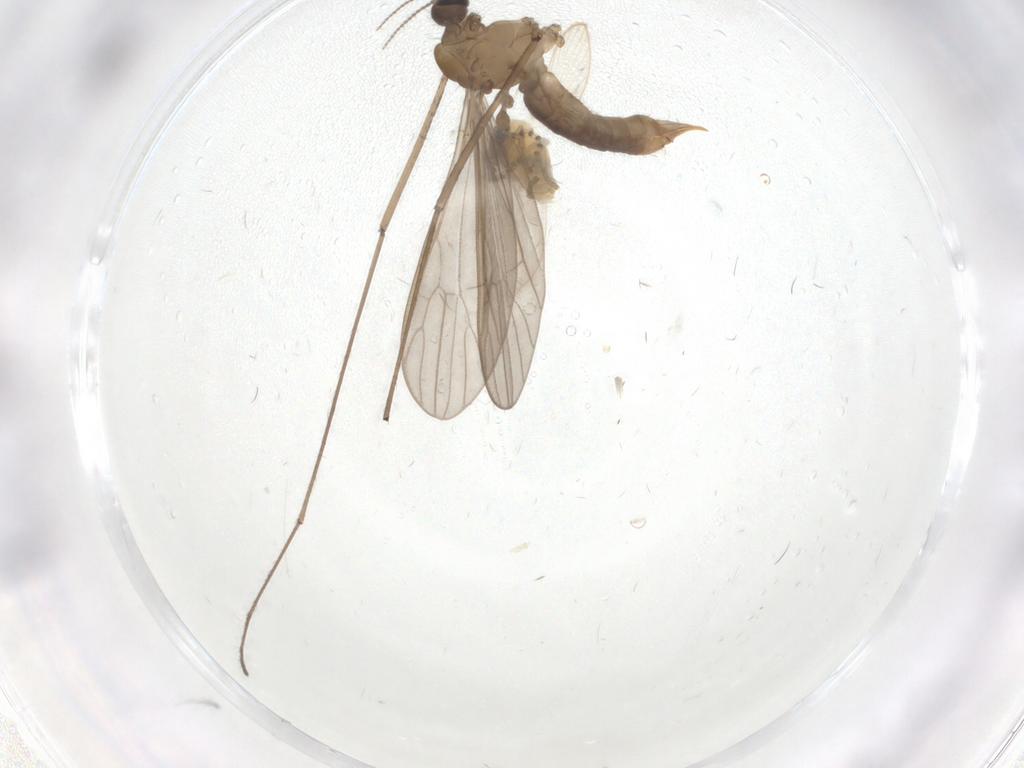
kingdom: Animalia
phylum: Arthropoda
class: Insecta
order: Diptera
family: Limoniidae
